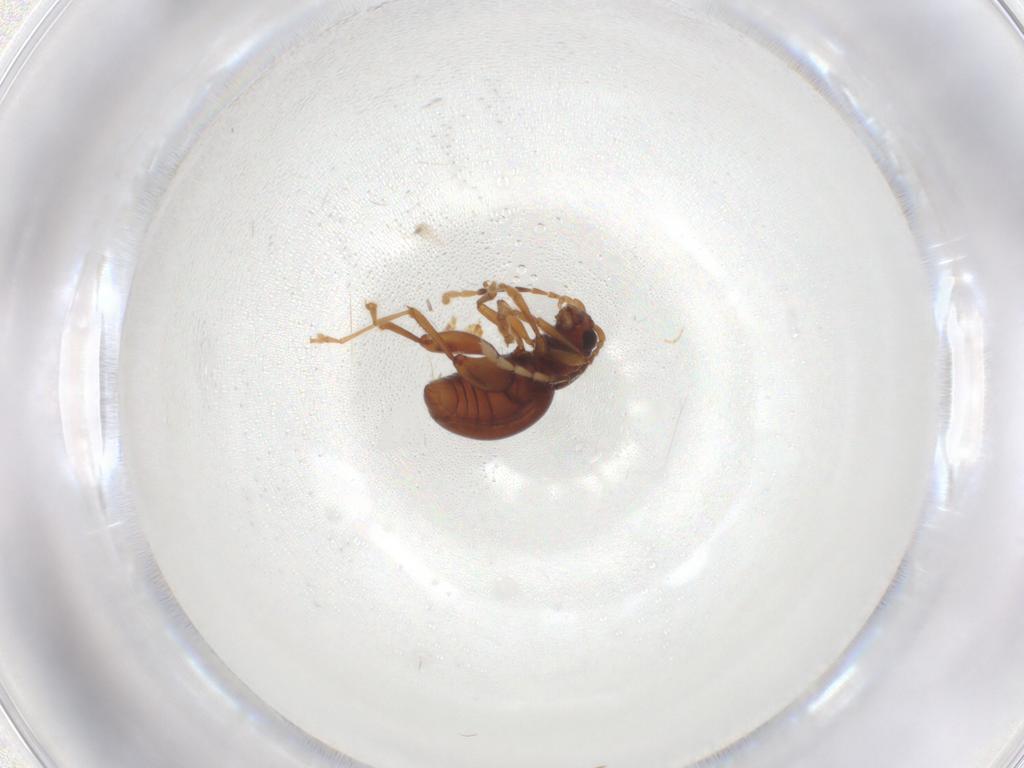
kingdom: Animalia
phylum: Arthropoda
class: Insecta
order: Coleoptera
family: Chrysomelidae
